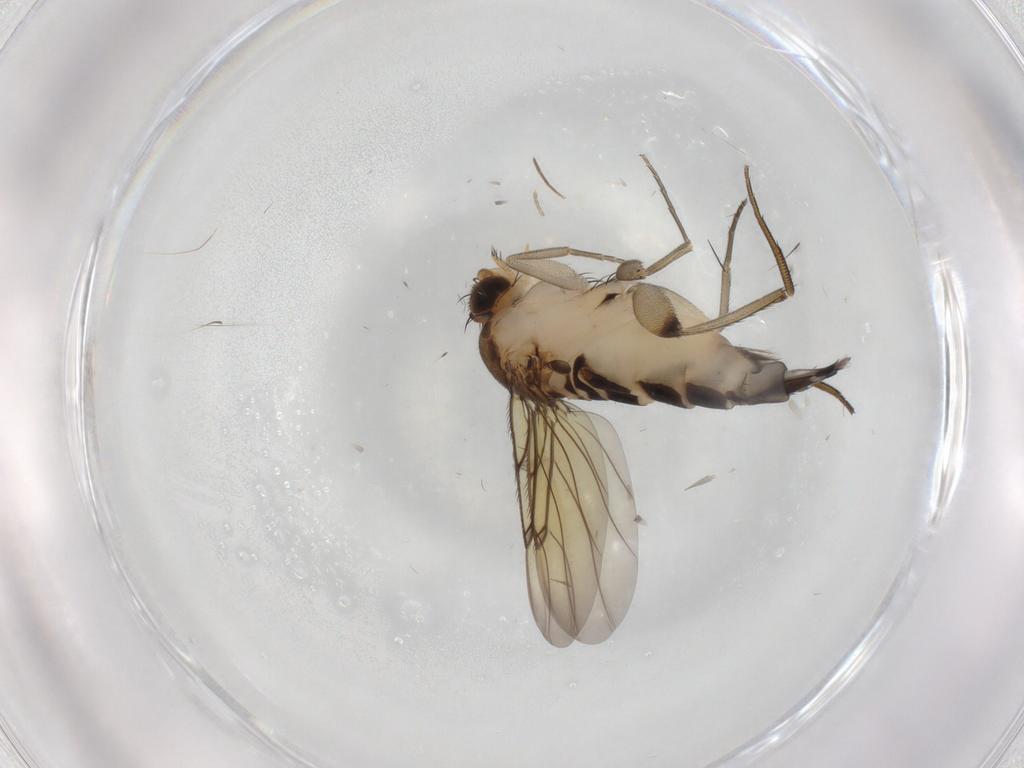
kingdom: Animalia
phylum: Arthropoda
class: Insecta
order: Diptera
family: Phoridae
